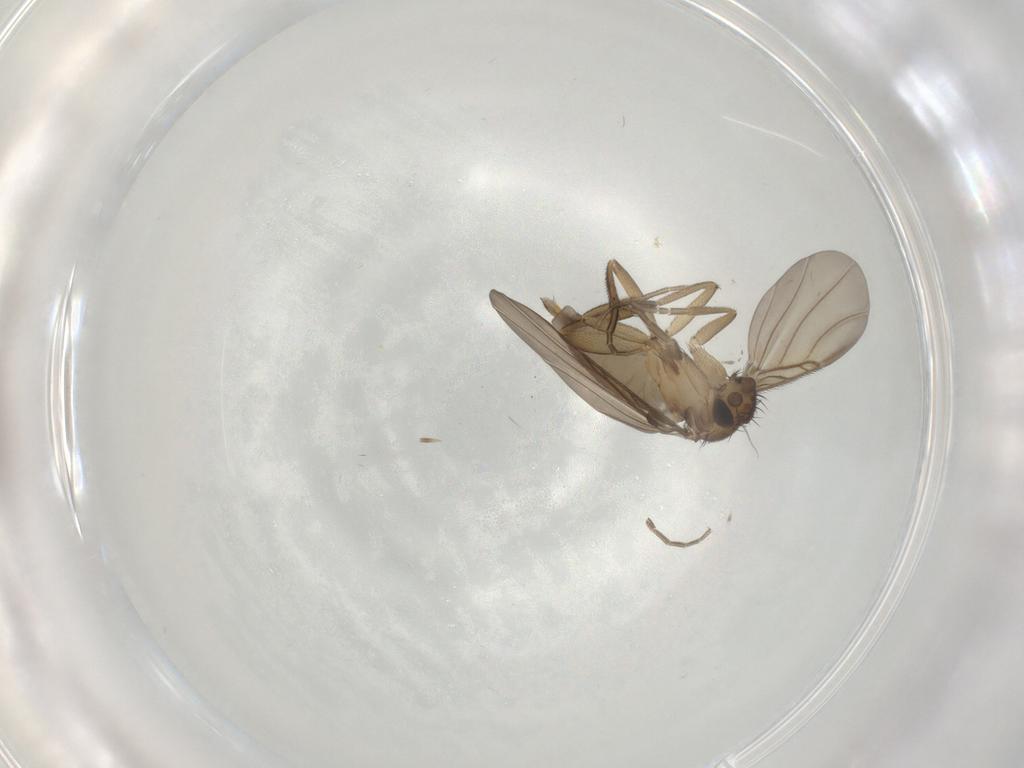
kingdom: Animalia
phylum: Arthropoda
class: Insecta
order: Diptera
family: Phoridae
